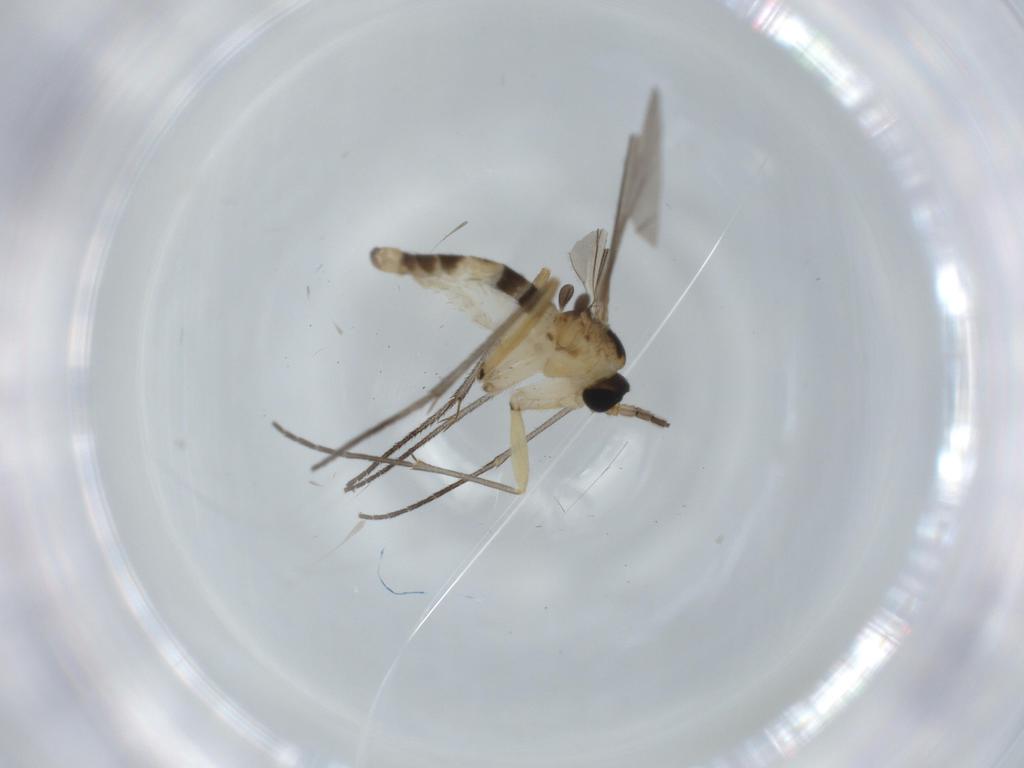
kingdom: Animalia
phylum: Arthropoda
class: Insecta
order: Diptera
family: Sciaridae
